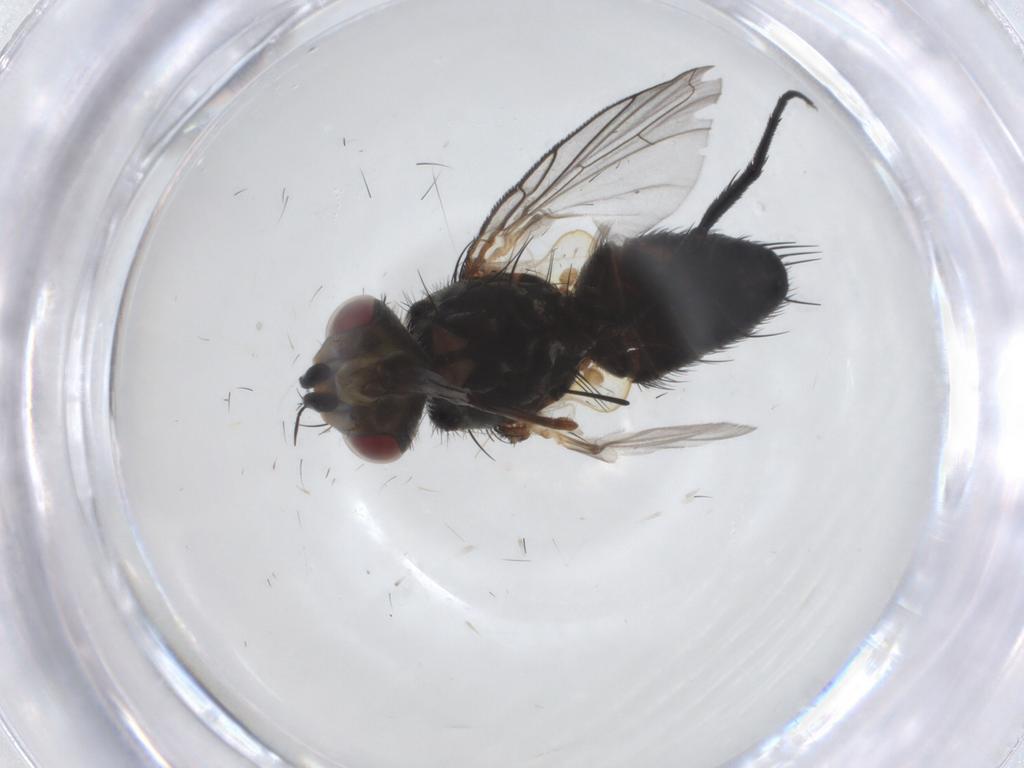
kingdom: Animalia
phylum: Arthropoda
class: Insecta
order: Diptera
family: Tachinidae
